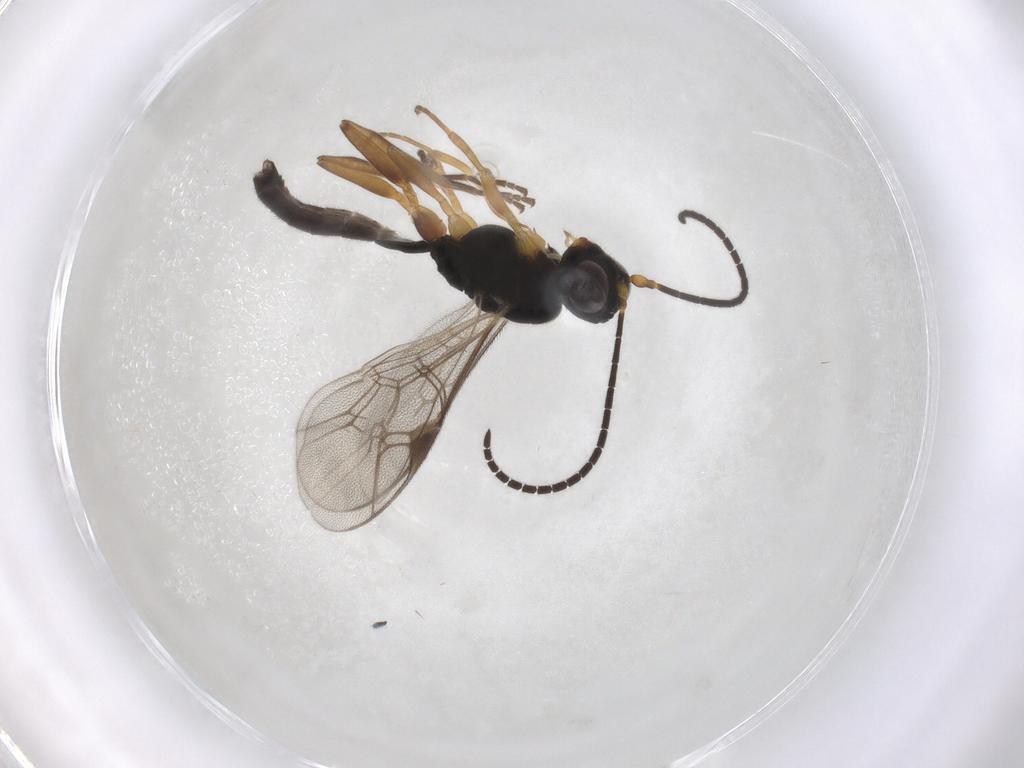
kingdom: Animalia
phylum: Arthropoda
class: Insecta
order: Hymenoptera
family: Ichneumonidae
